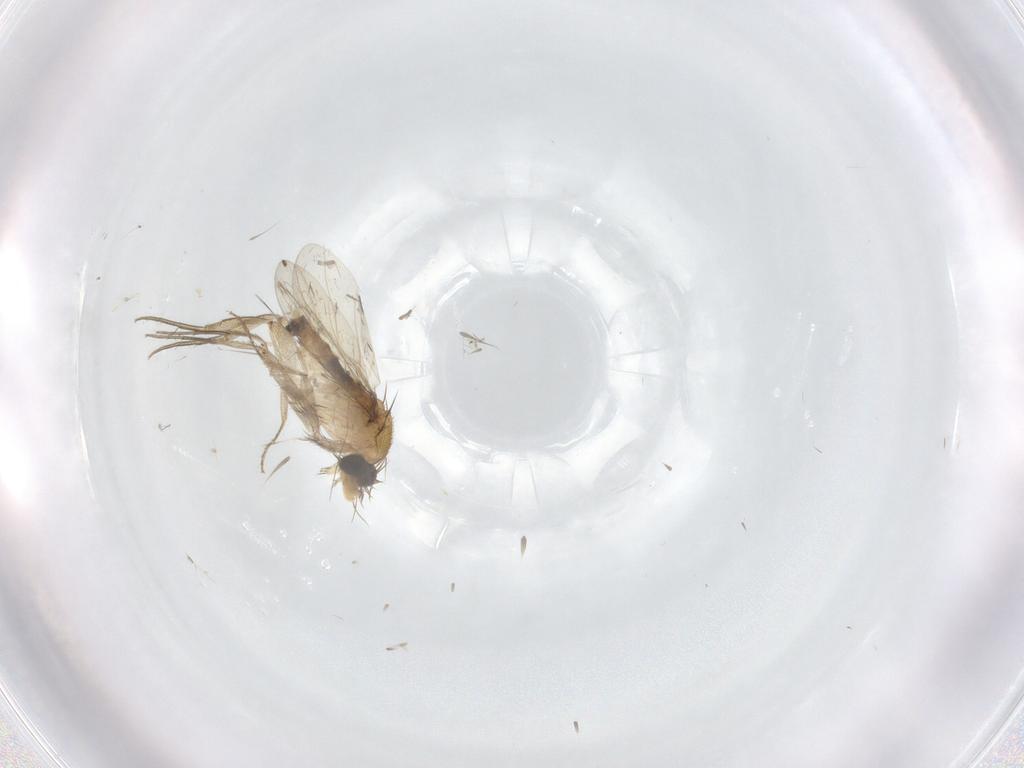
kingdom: Animalia
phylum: Arthropoda
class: Insecta
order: Diptera
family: Phoridae
